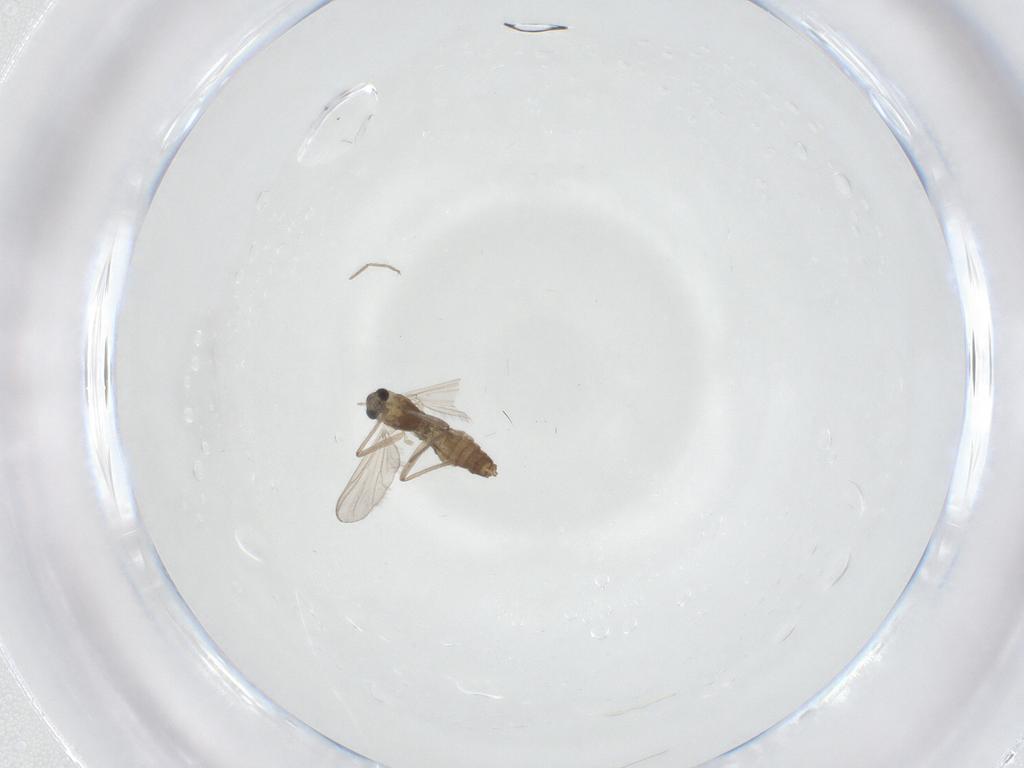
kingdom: Animalia
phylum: Arthropoda
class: Insecta
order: Diptera
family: Chironomidae
